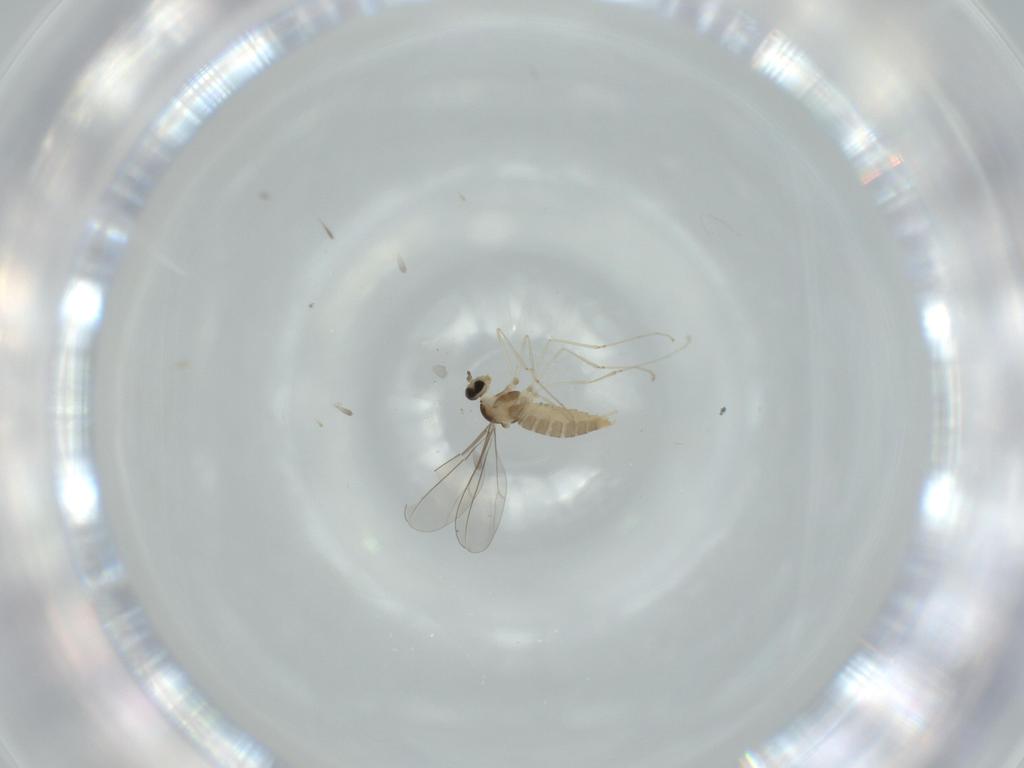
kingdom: Animalia
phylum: Arthropoda
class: Insecta
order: Diptera
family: Cecidomyiidae
